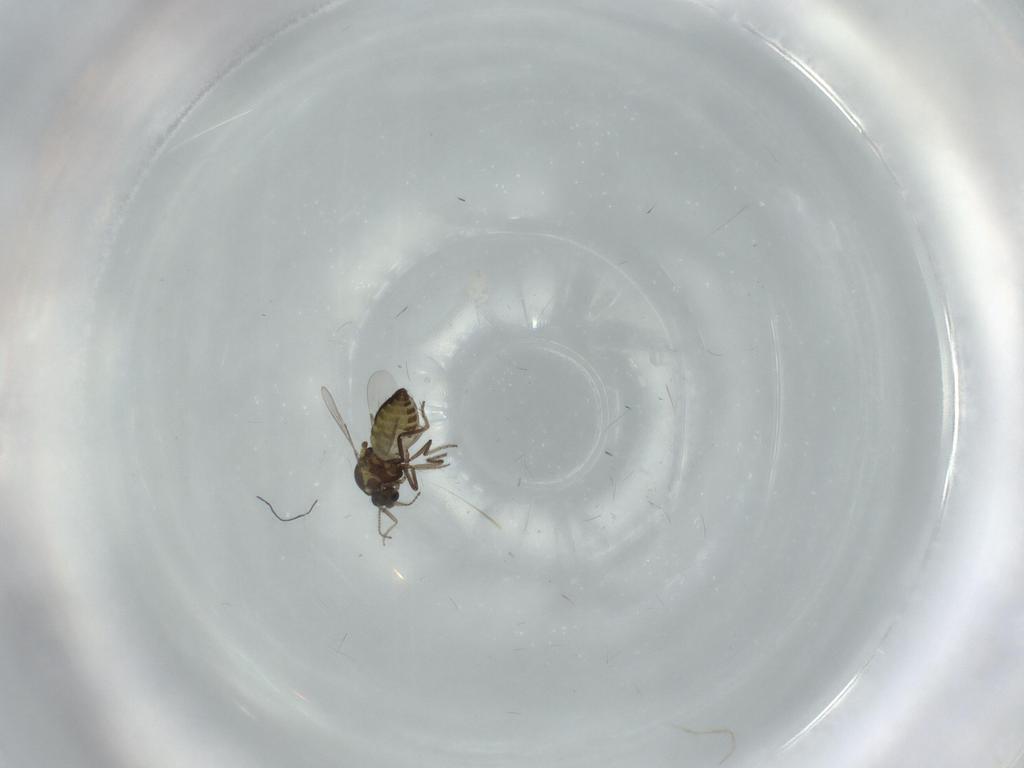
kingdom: Animalia
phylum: Arthropoda
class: Insecta
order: Diptera
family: Ceratopogonidae
